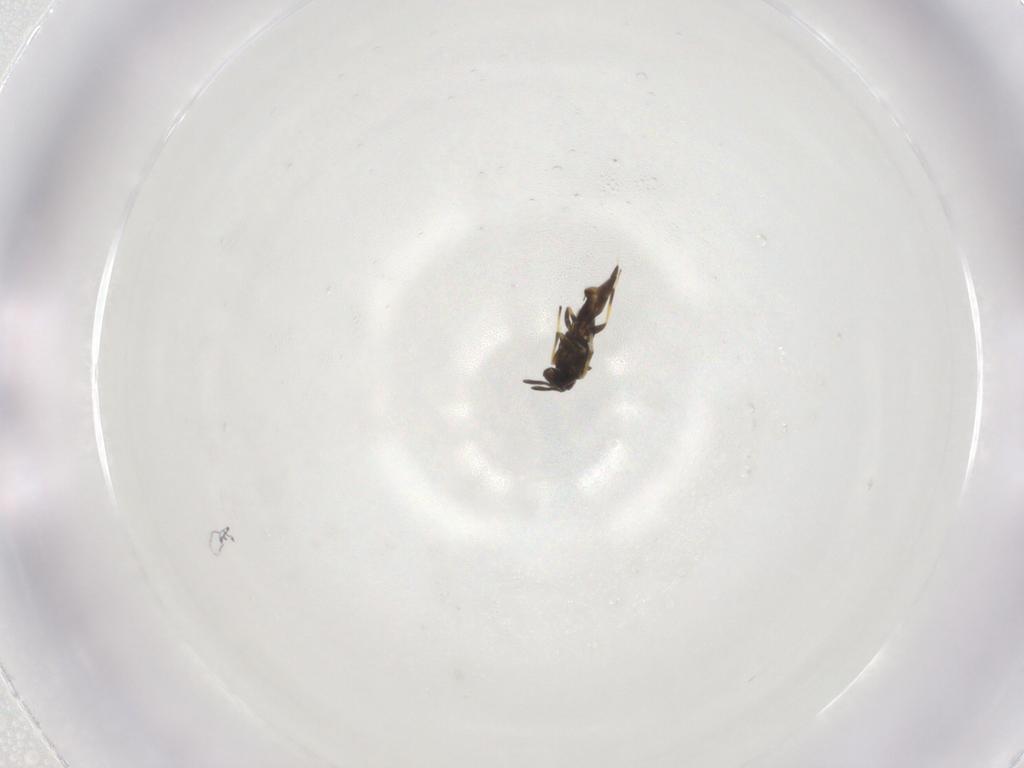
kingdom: Animalia
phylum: Arthropoda
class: Insecta
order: Hymenoptera
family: Encyrtidae
